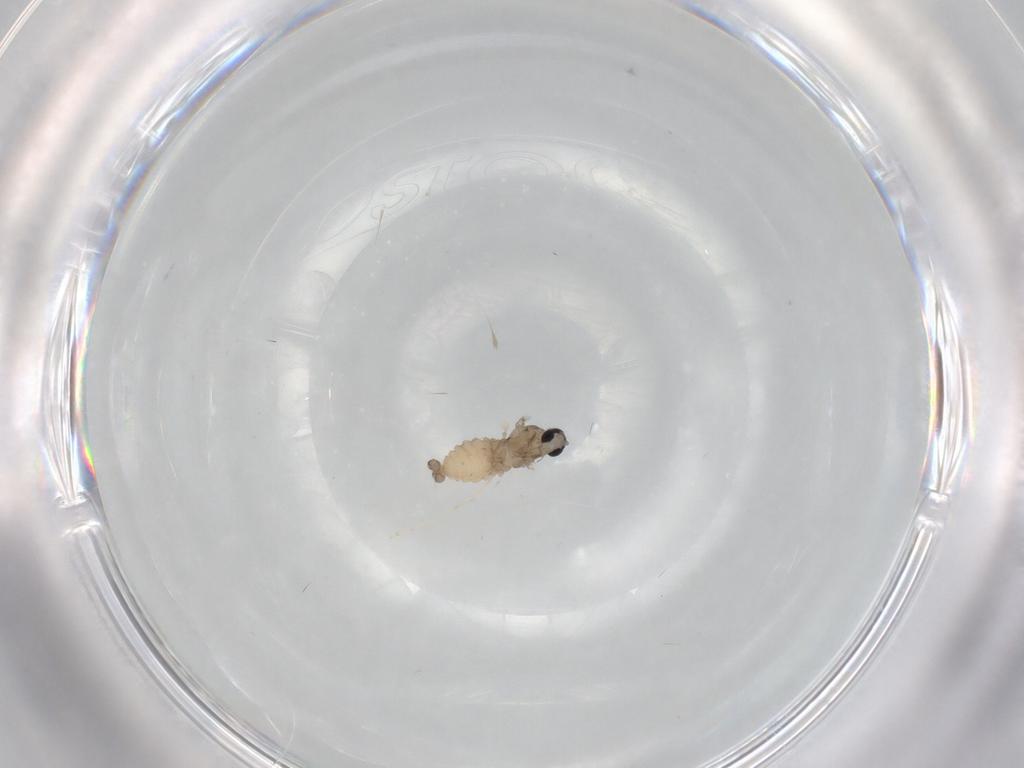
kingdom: Animalia
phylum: Arthropoda
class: Insecta
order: Diptera
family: Cecidomyiidae
